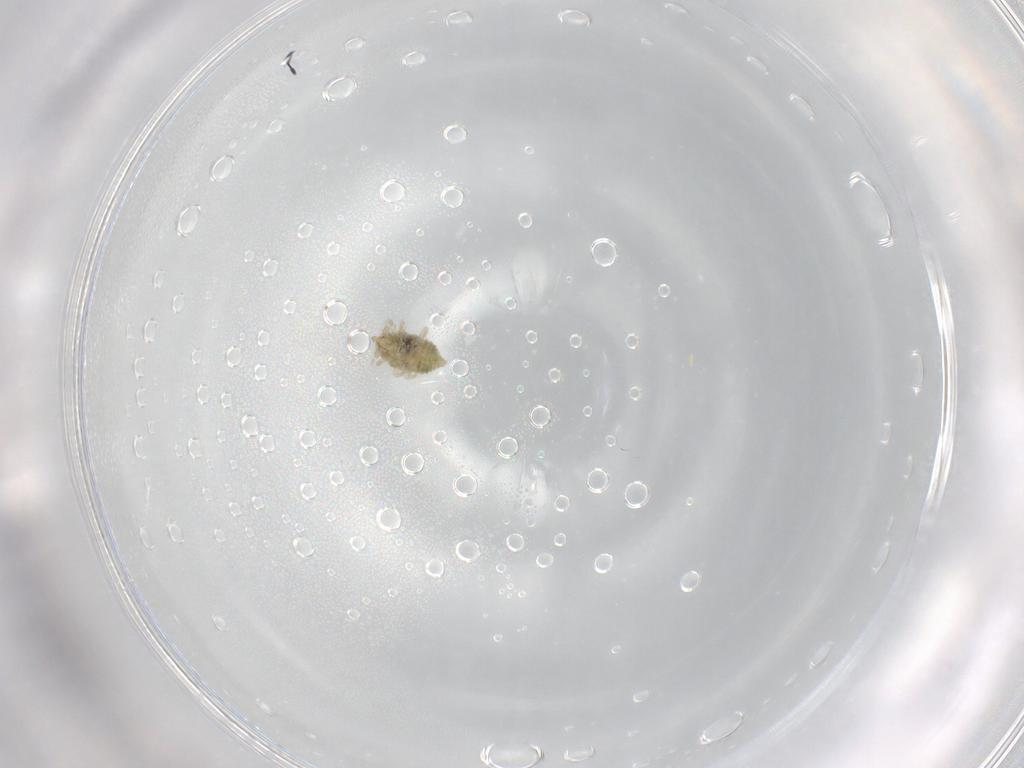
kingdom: Animalia
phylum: Arthropoda
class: Insecta
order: Neuroptera
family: Coniopterygidae
